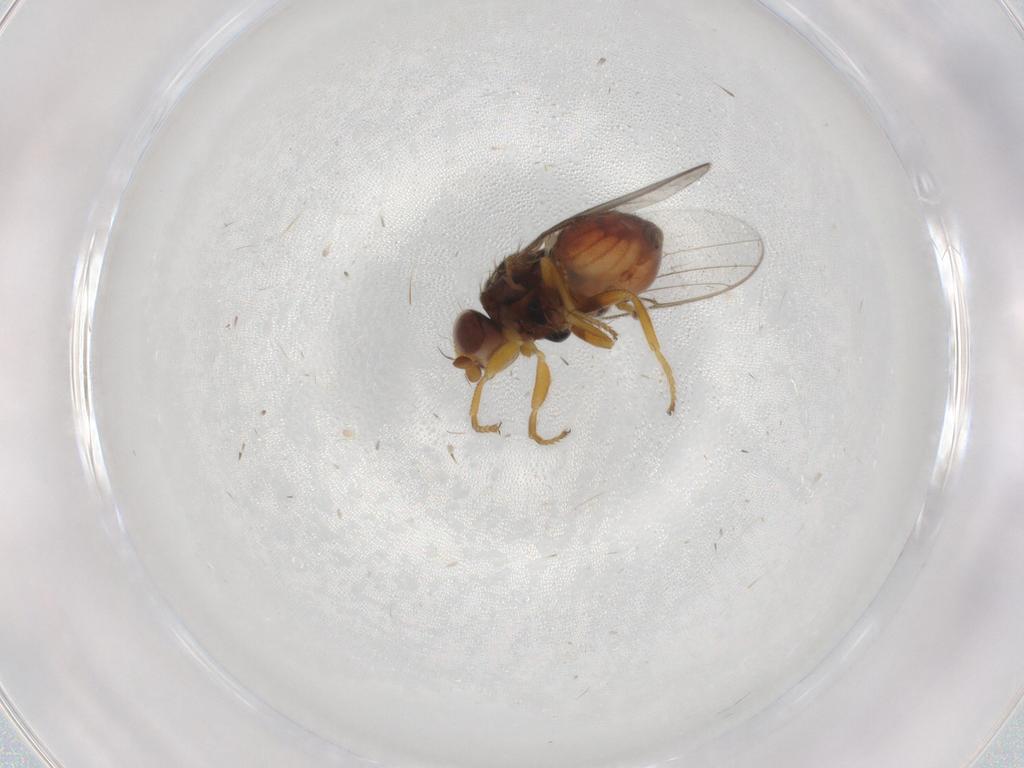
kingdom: Animalia
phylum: Arthropoda
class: Insecta
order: Diptera
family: Chloropidae
